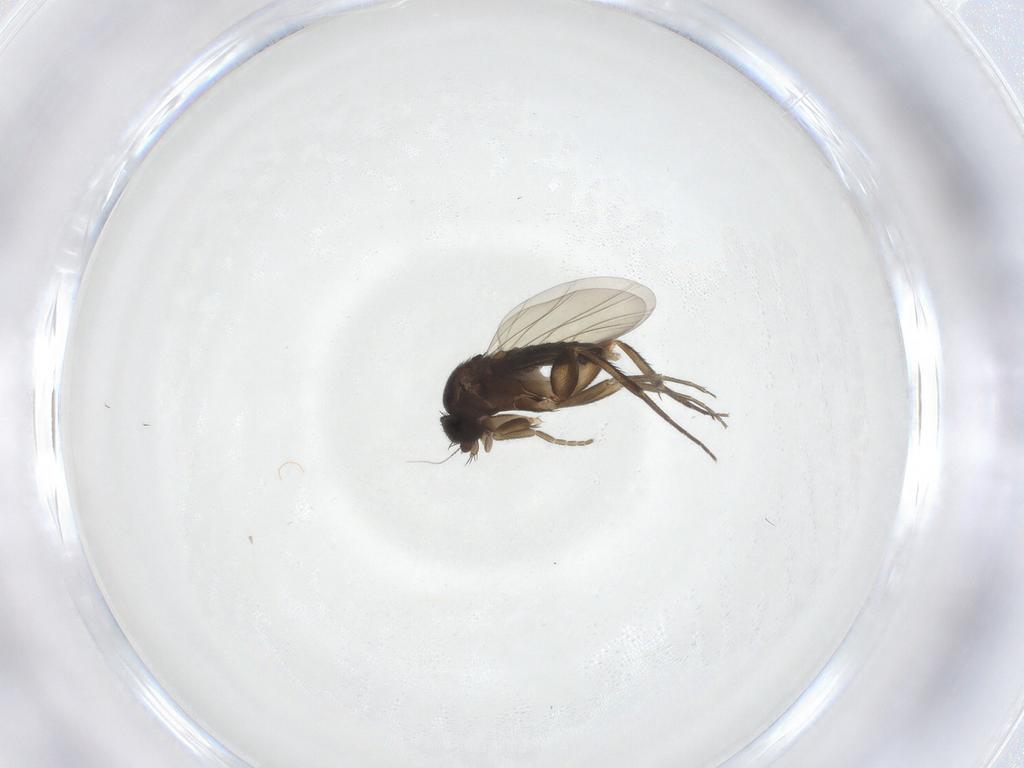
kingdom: Animalia
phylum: Arthropoda
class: Insecta
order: Diptera
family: Phoridae
